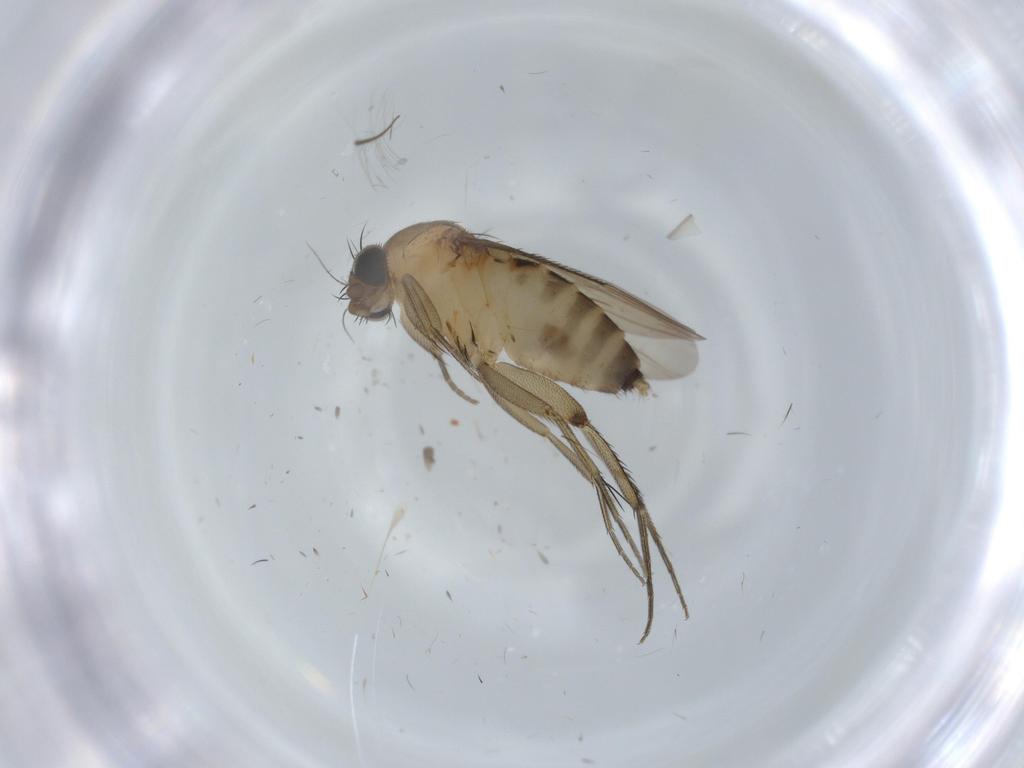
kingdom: Animalia
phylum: Arthropoda
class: Insecta
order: Diptera
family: Phoridae
